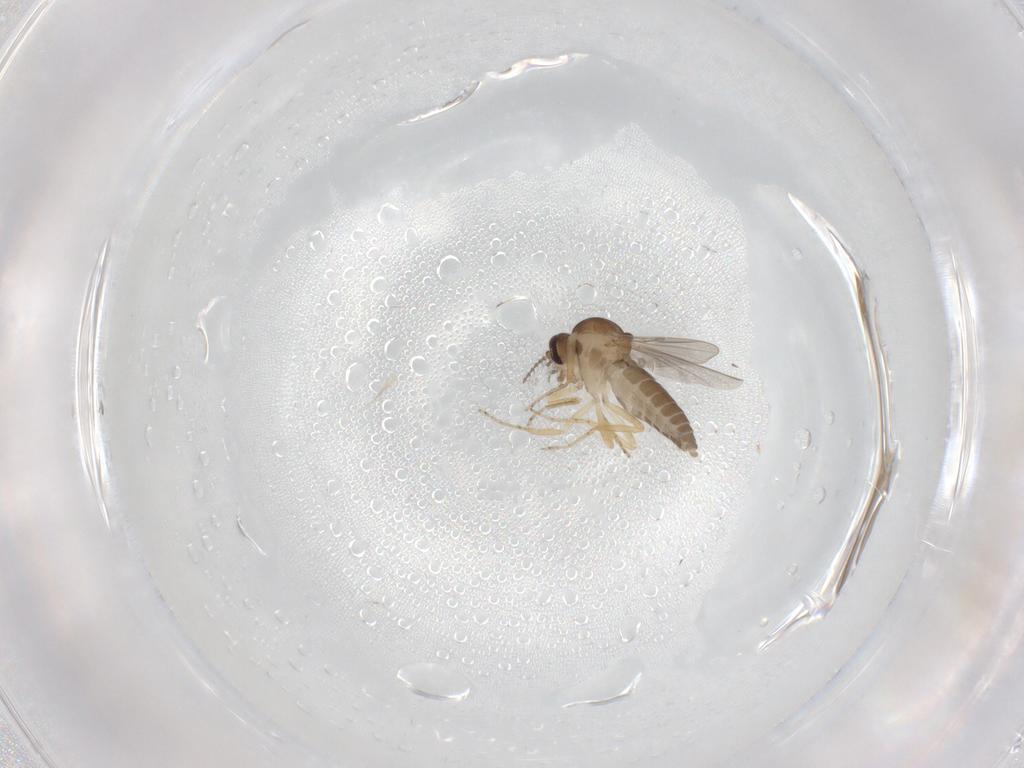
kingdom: Animalia
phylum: Arthropoda
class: Insecta
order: Diptera
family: Ceratopogonidae
